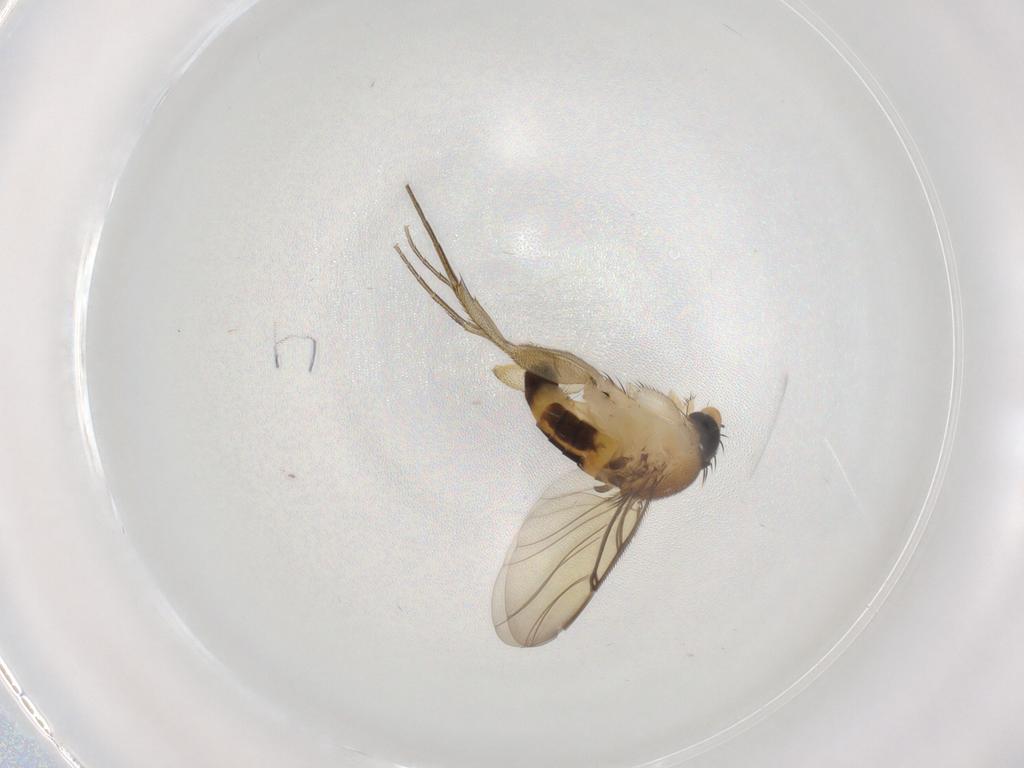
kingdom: Animalia
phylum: Arthropoda
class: Insecta
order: Diptera
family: Phoridae
